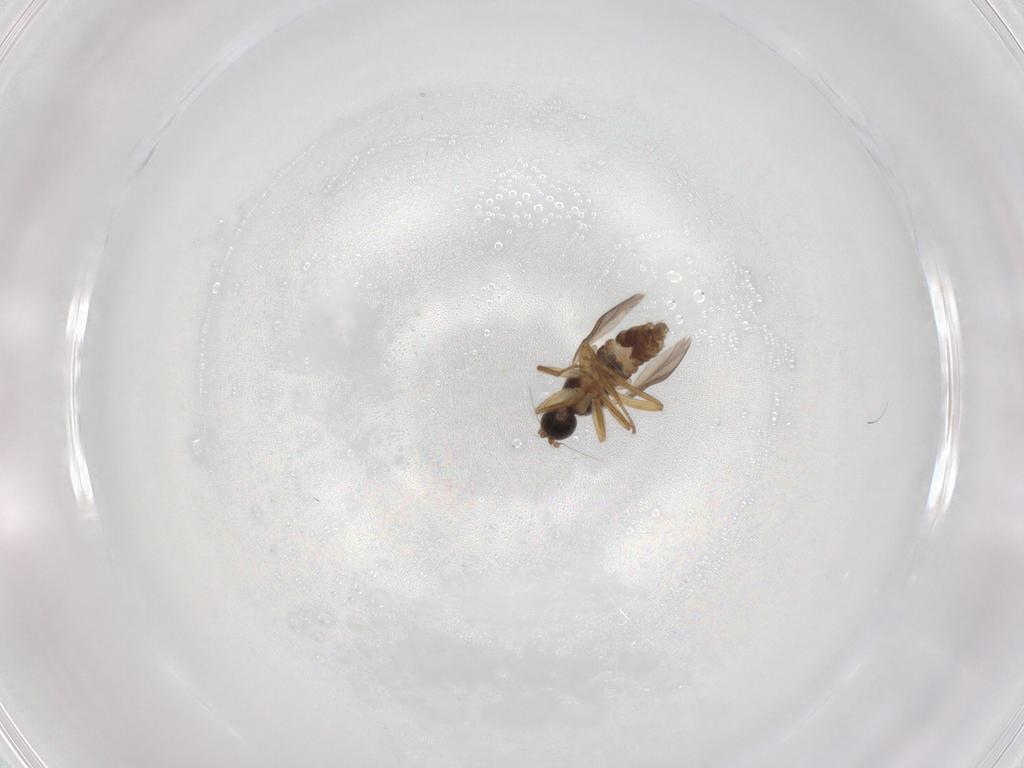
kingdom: Animalia
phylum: Arthropoda
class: Insecta
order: Diptera
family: Hybotidae
